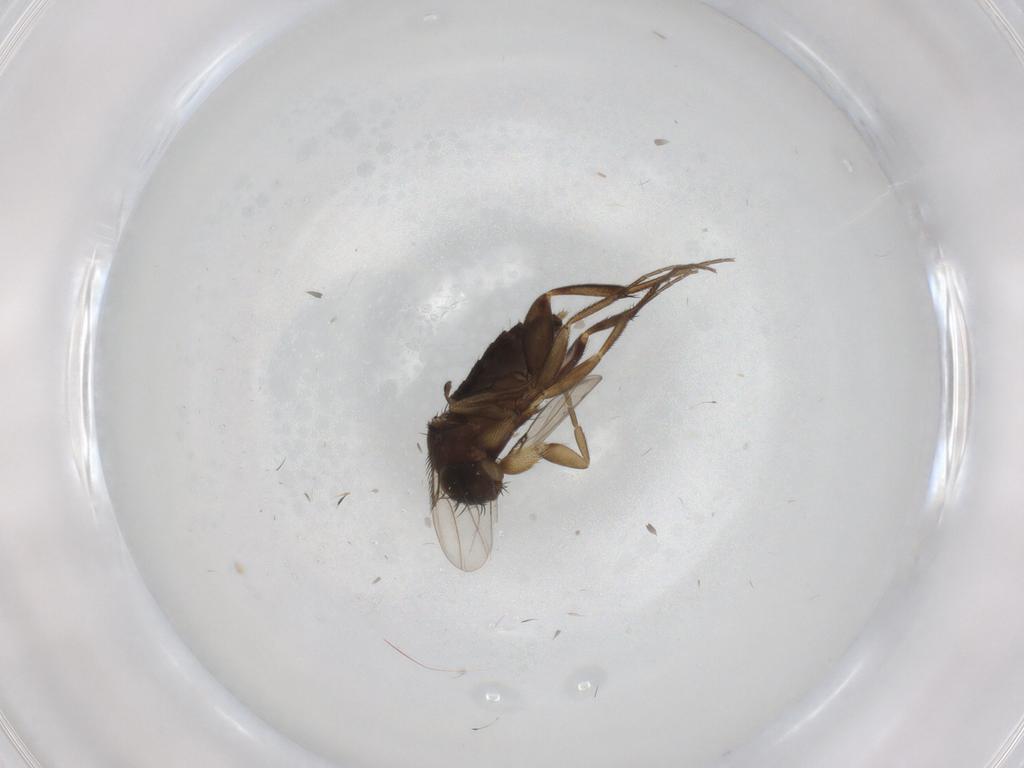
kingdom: Animalia
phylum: Arthropoda
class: Insecta
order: Diptera
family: Phoridae
